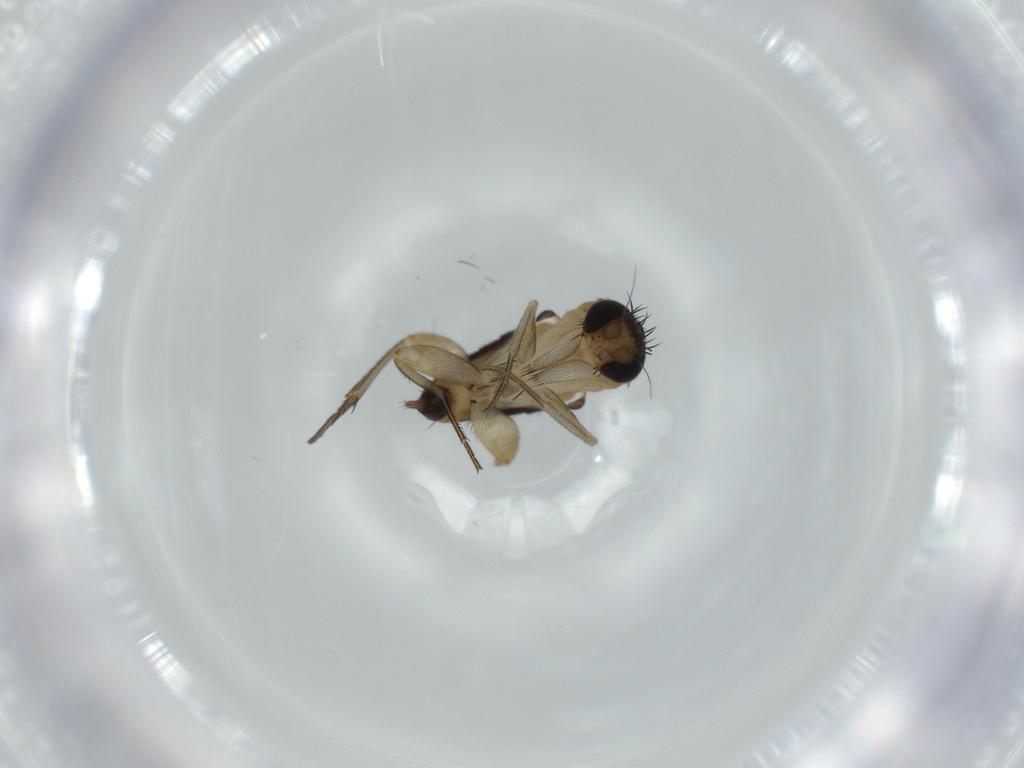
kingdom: Animalia
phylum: Arthropoda
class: Insecta
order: Diptera
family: Phoridae
